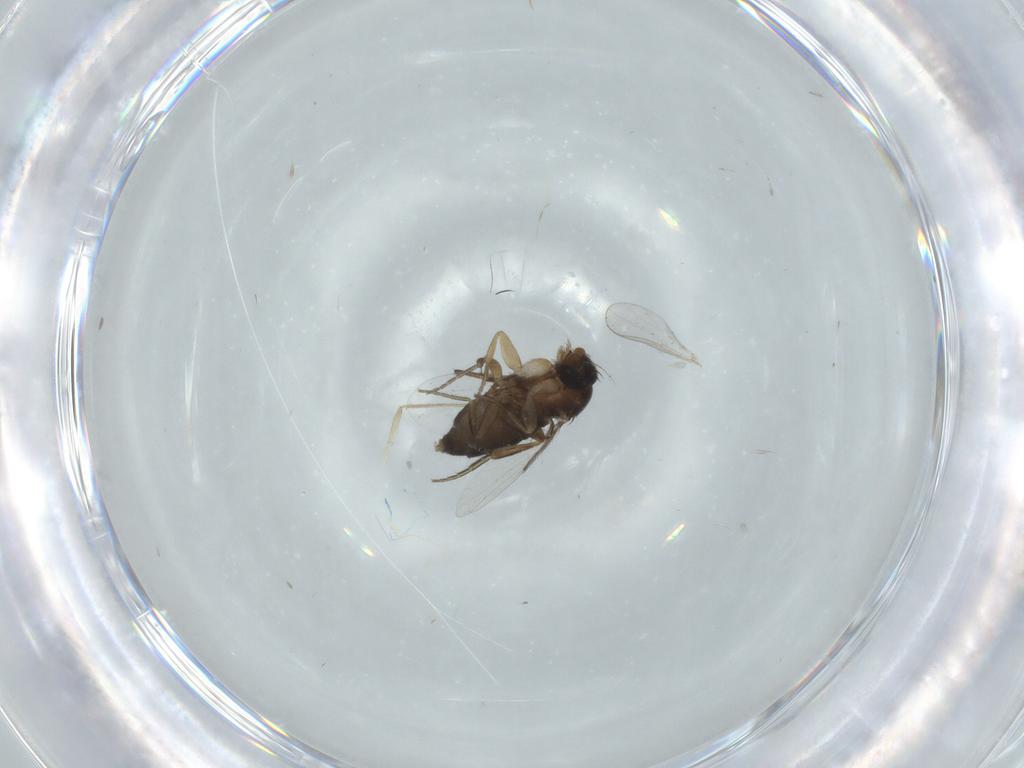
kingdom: Animalia
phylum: Arthropoda
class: Insecta
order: Diptera
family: Phoridae
